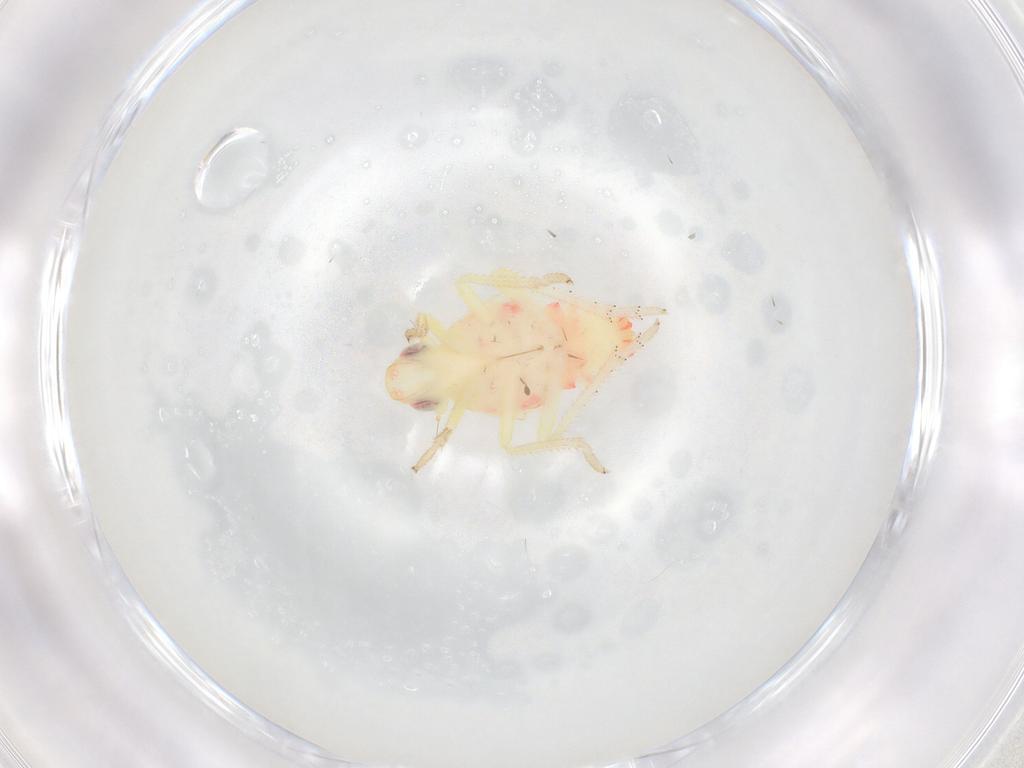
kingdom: Animalia
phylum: Arthropoda
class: Insecta
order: Hemiptera
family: Tropiduchidae
